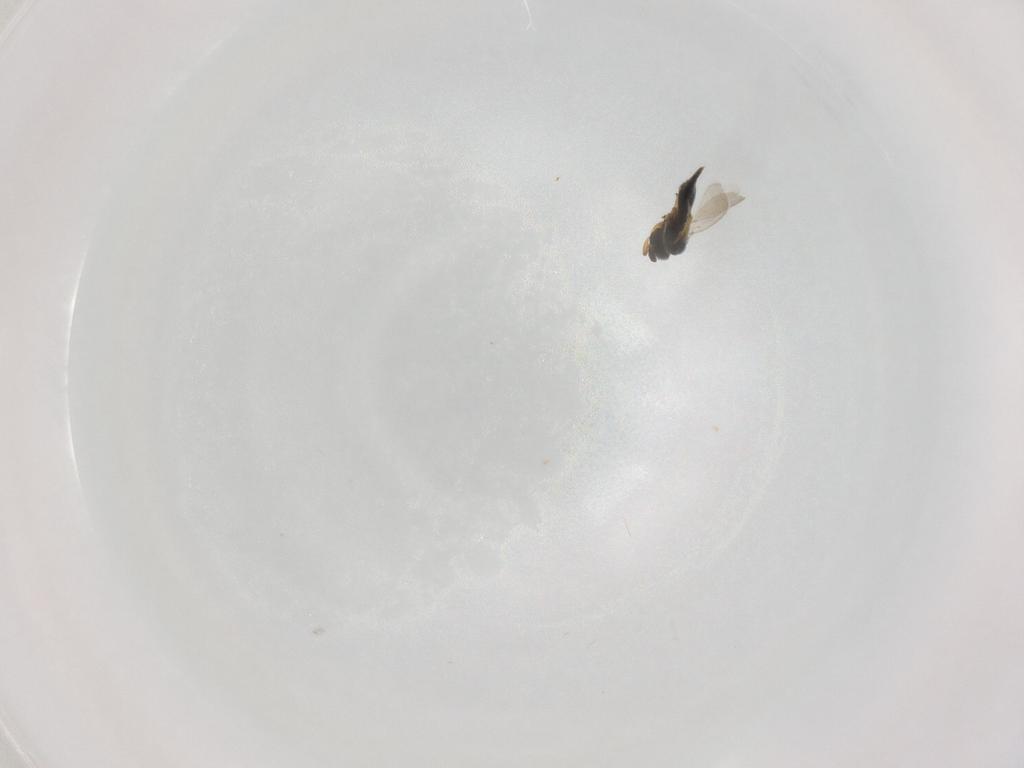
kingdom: Animalia
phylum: Arthropoda
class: Insecta
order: Hymenoptera
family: Platygastridae
